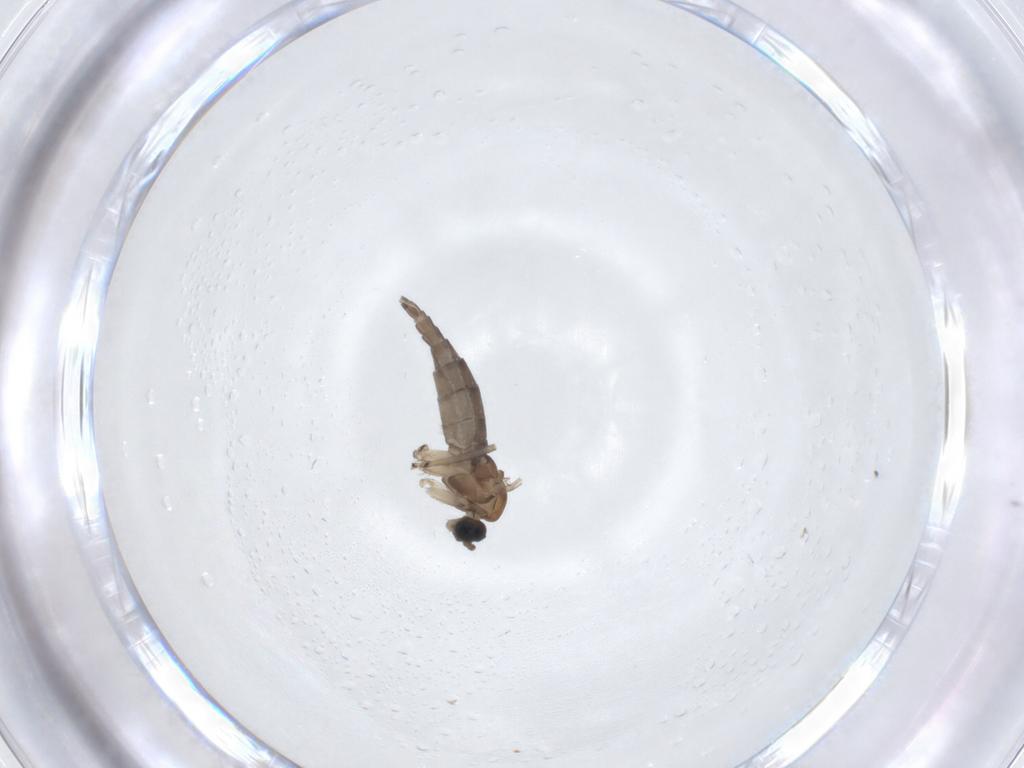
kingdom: Animalia
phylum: Arthropoda
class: Insecta
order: Diptera
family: Sciaridae
